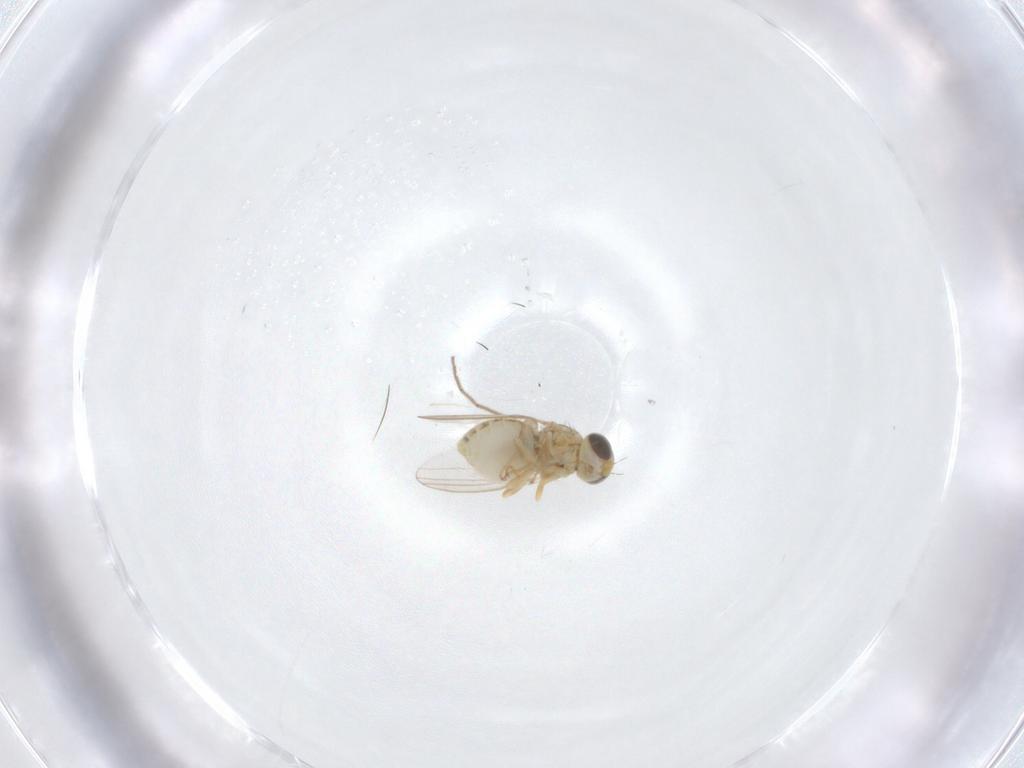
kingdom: Animalia
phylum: Arthropoda
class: Insecta
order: Diptera
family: Chyromyidae
